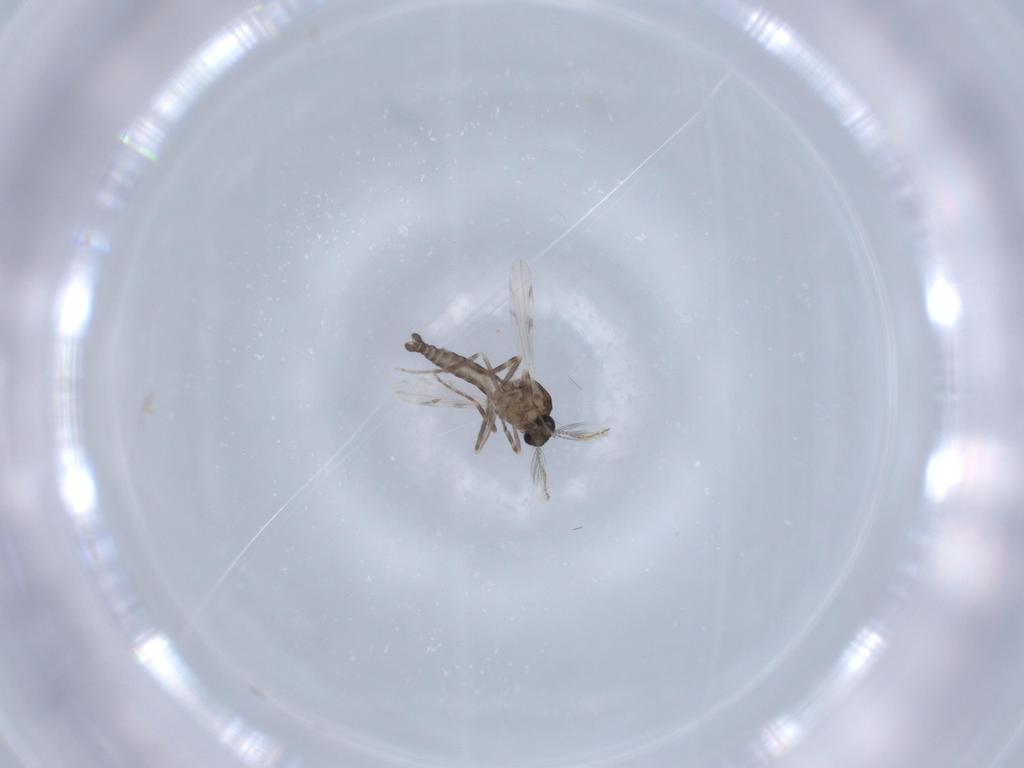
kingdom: Animalia
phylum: Arthropoda
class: Insecta
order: Diptera
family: Ceratopogonidae
